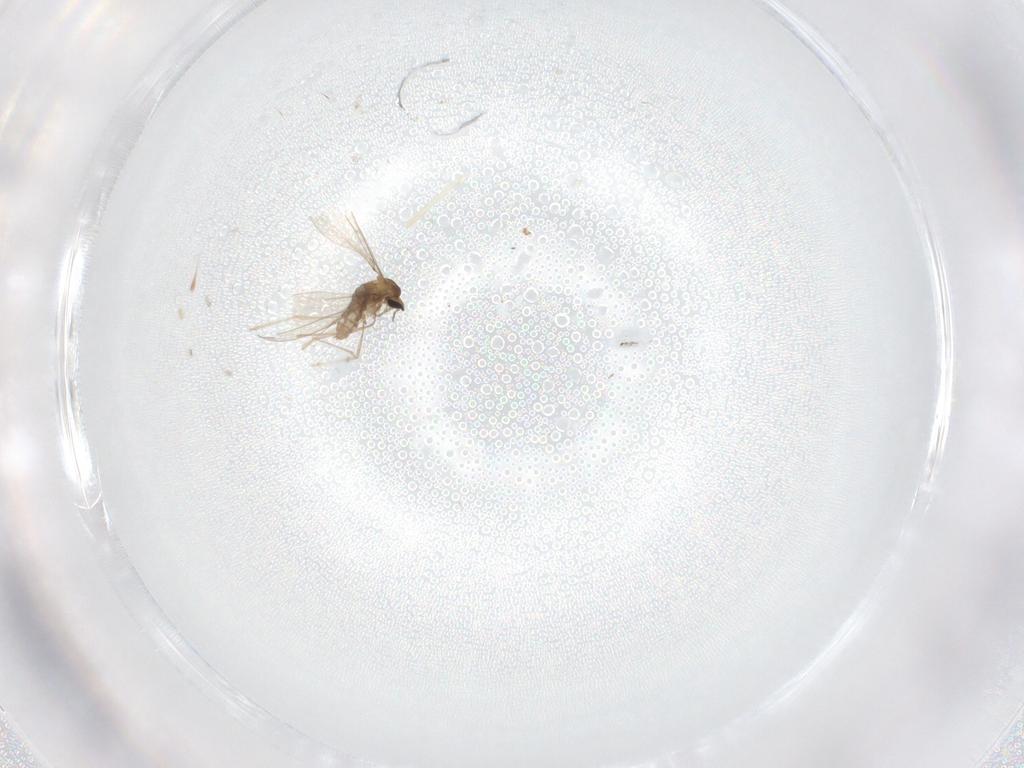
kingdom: Animalia
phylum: Arthropoda
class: Insecta
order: Diptera
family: Cecidomyiidae
